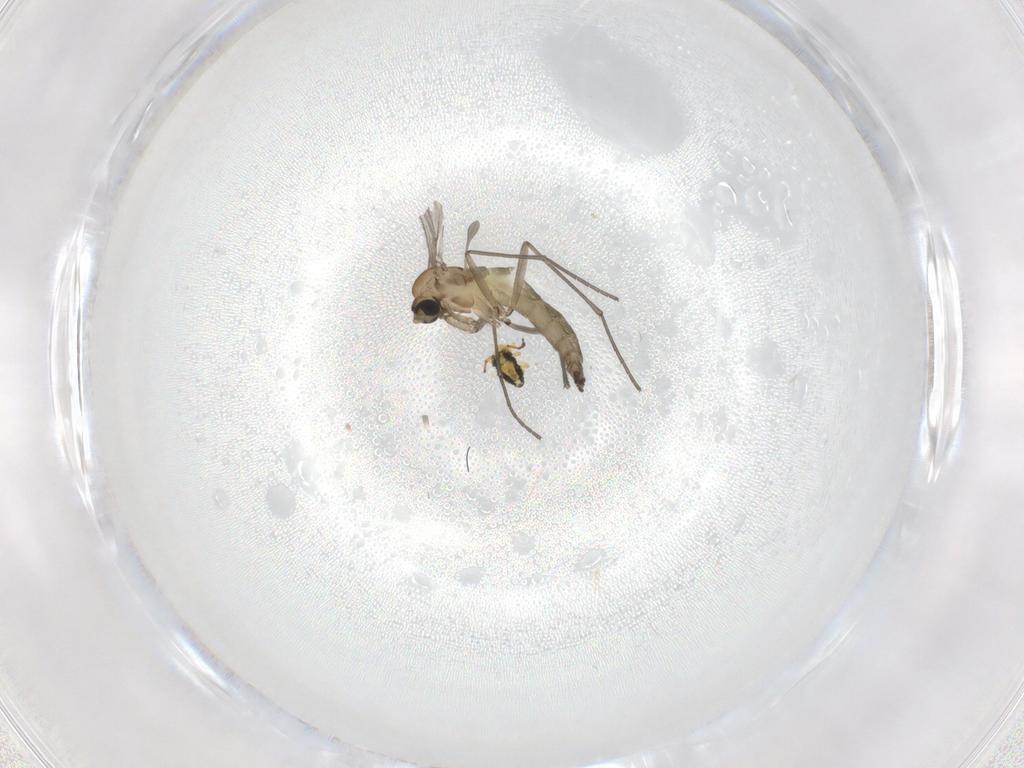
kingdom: Animalia
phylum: Arthropoda
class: Insecta
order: Diptera
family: Sciaridae
